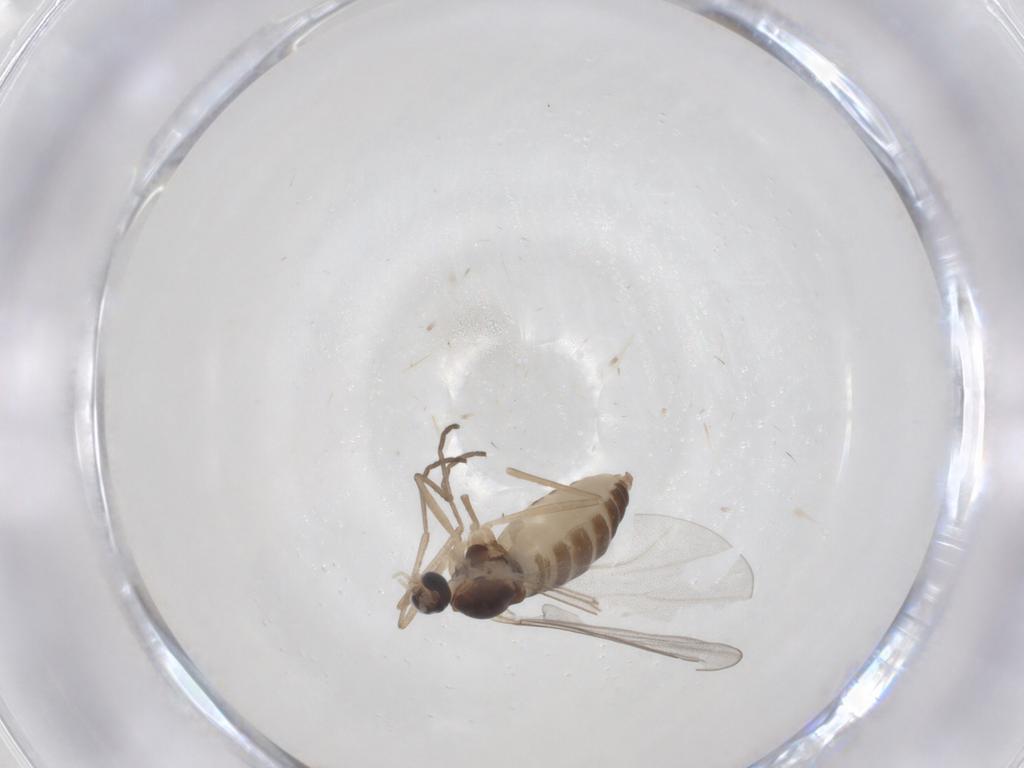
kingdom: Animalia
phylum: Arthropoda
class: Insecta
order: Diptera
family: Cecidomyiidae
